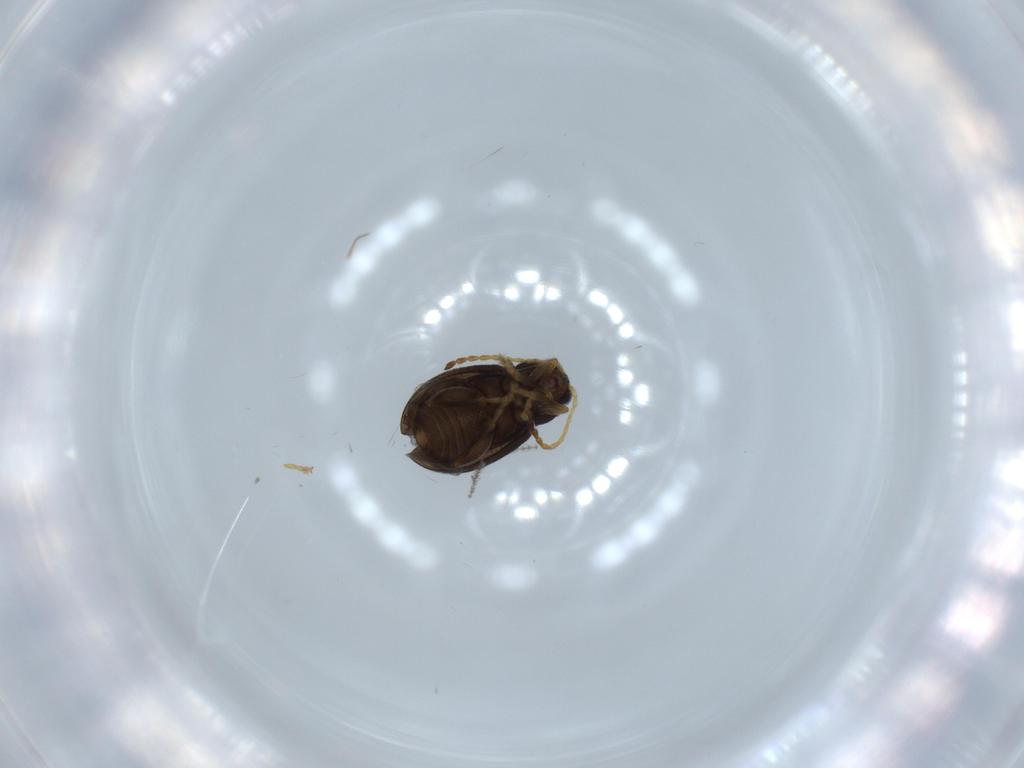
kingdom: Animalia
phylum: Arthropoda
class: Insecta
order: Coleoptera
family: Chrysomelidae
